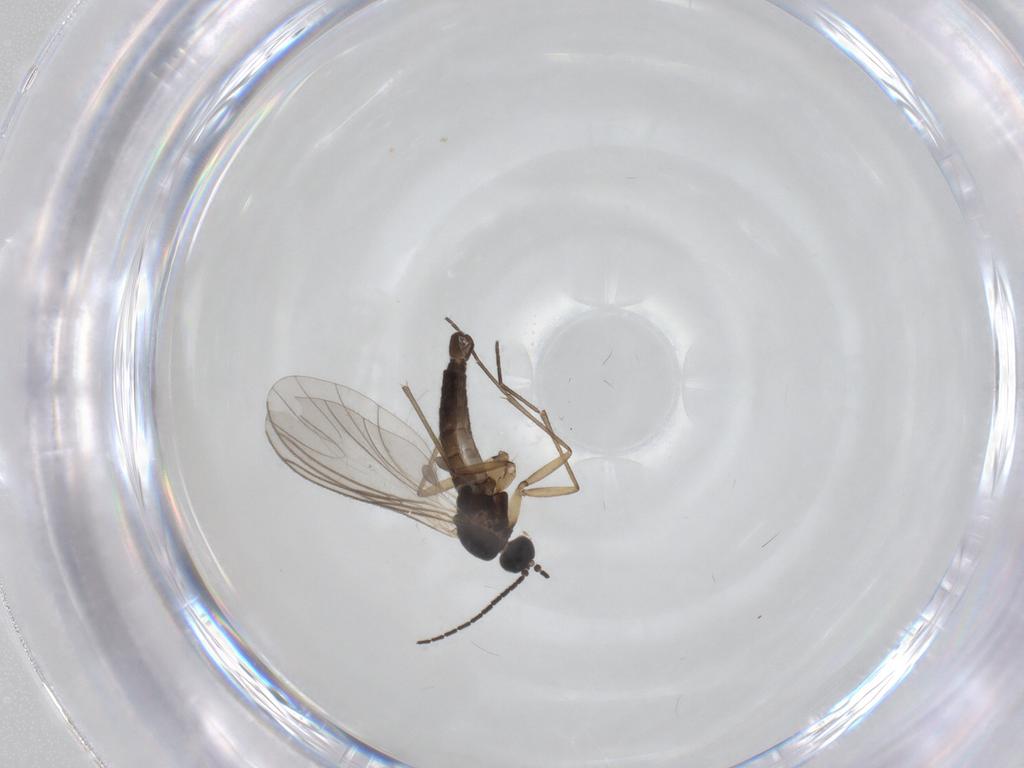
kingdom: Animalia
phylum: Arthropoda
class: Insecta
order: Diptera
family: Sciaridae
